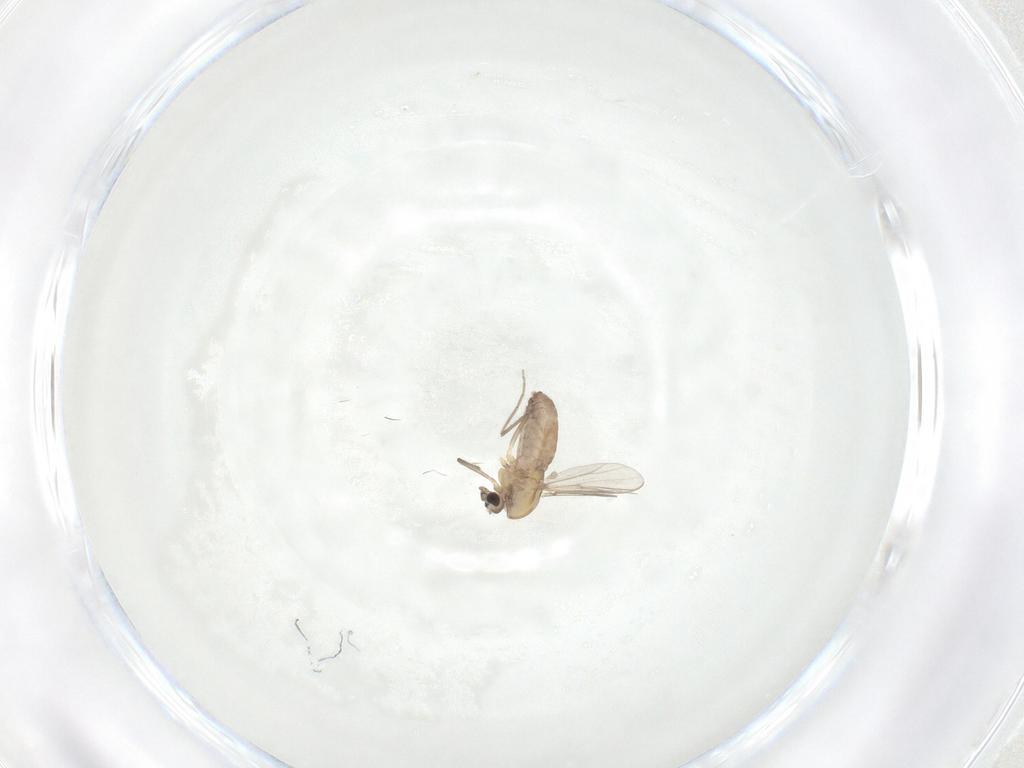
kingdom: Animalia
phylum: Arthropoda
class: Insecta
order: Diptera
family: Chironomidae
